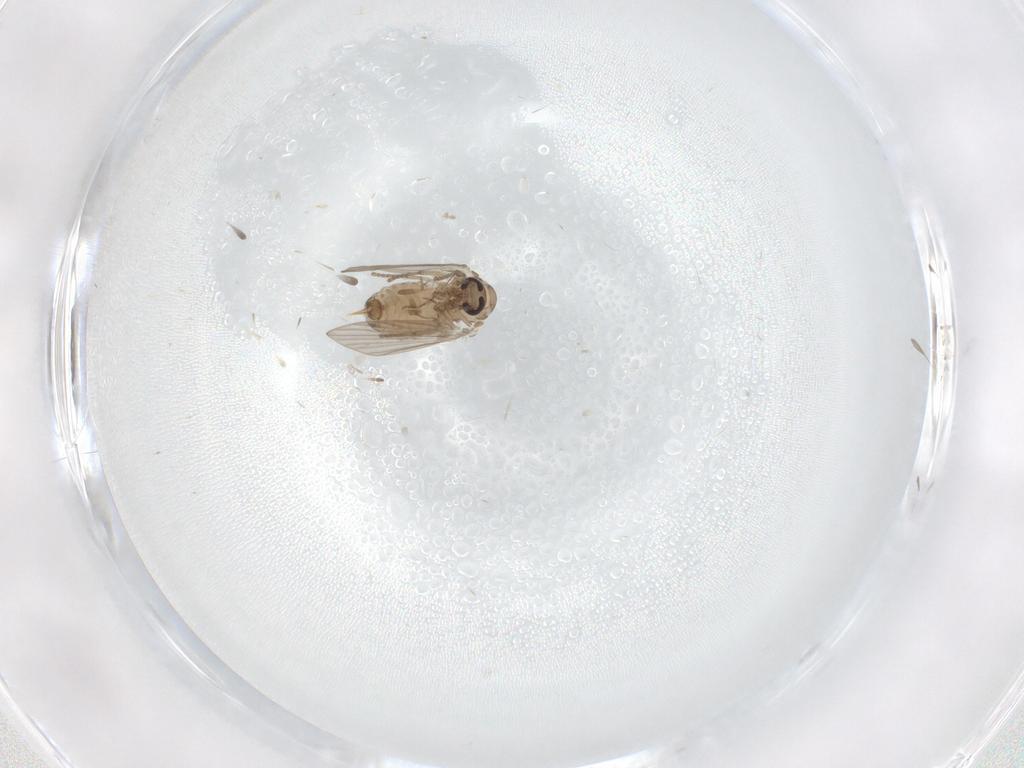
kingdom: Animalia
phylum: Arthropoda
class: Insecta
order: Diptera
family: Psychodidae
